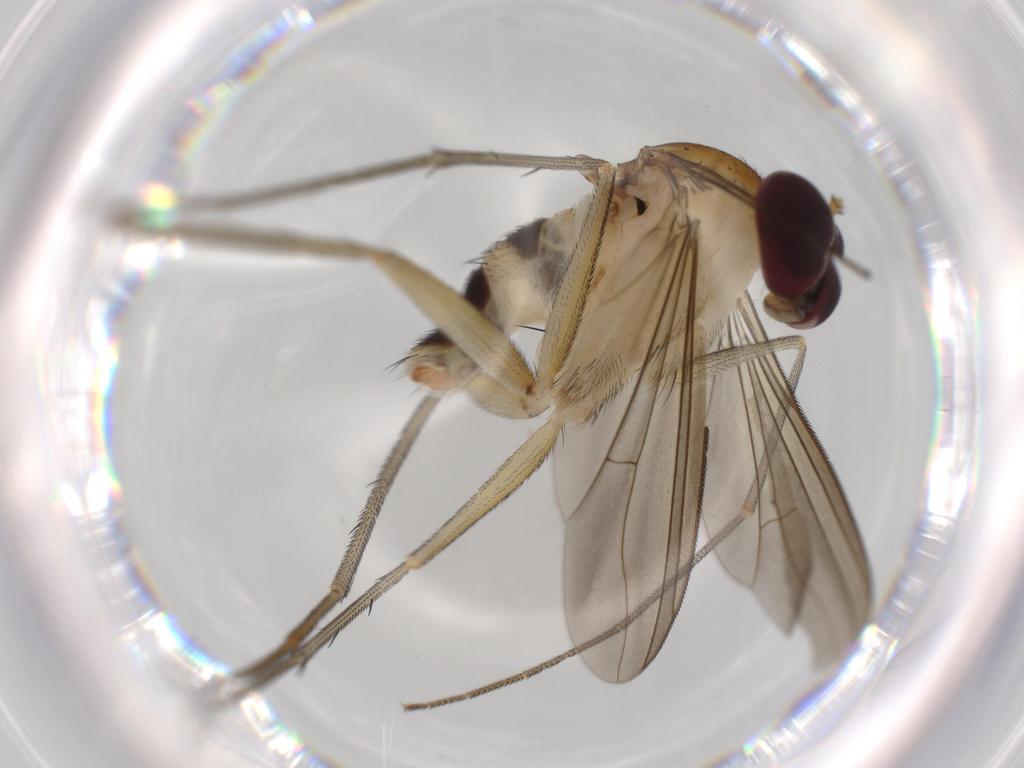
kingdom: Animalia
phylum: Arthropoda
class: Insecta
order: Diptera
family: Dolichopodidae
